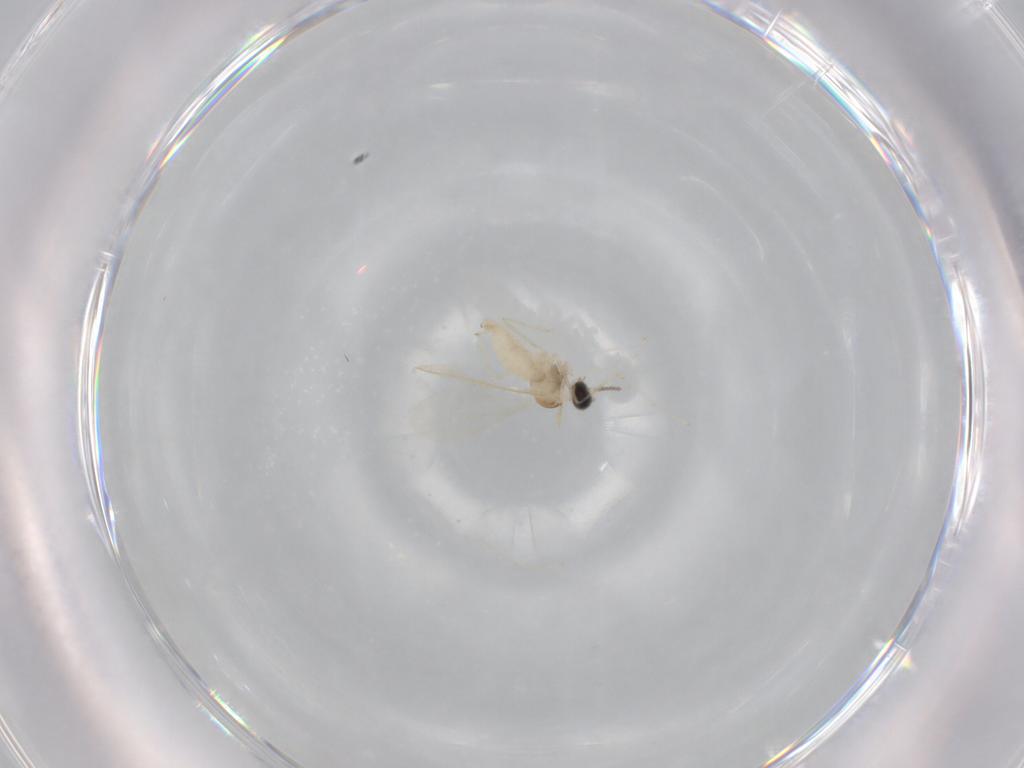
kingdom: Animalia
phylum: Arthropoda
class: Insecta
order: Diptera
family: Cecidomyiidae
